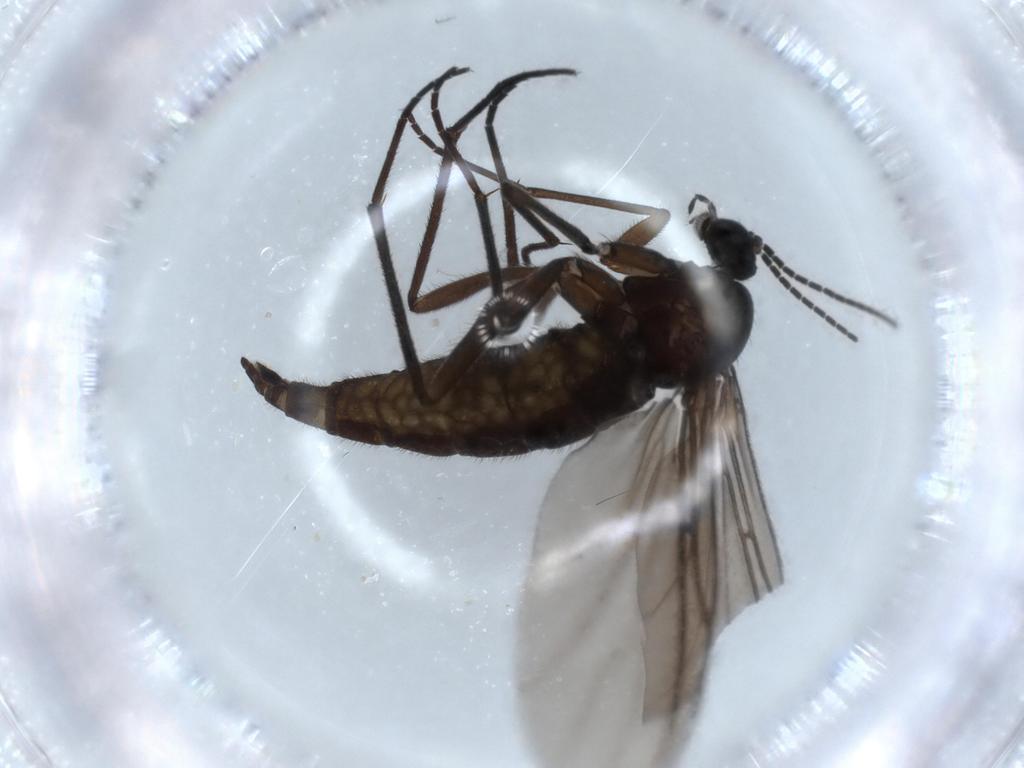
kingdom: Animalia
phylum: Arthropoda
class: Insecta
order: Diptera
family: Sciaridae
